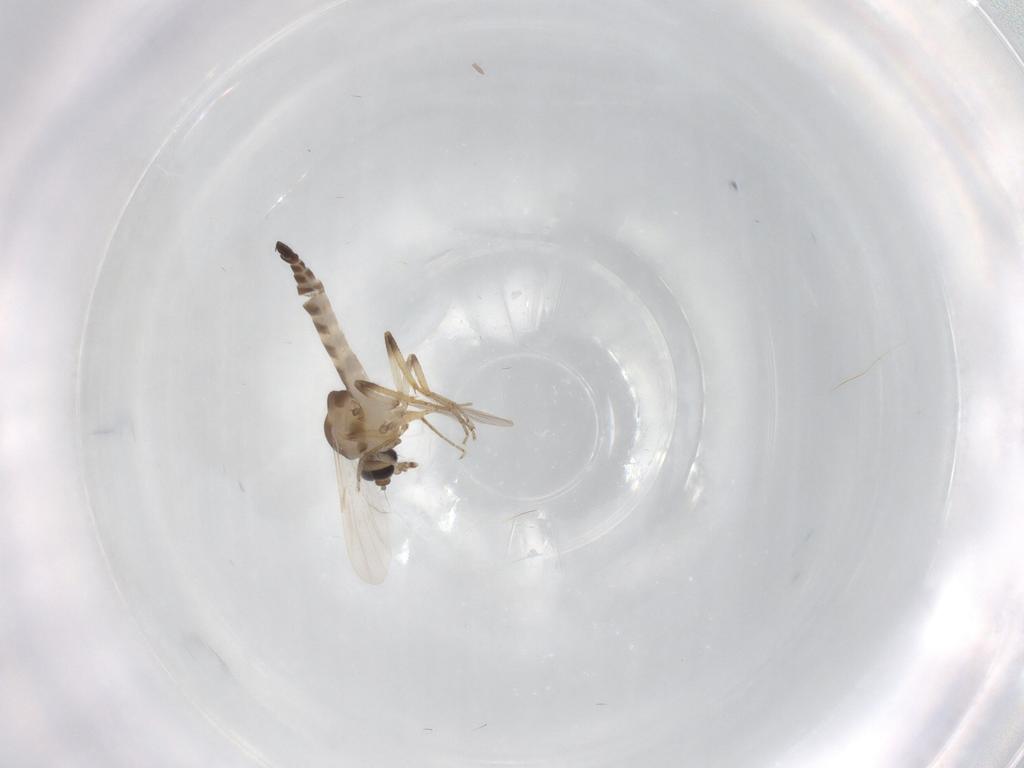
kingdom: Animalia
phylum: Arthropoda
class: Insecta
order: Diptera
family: Ceratopogonidae
